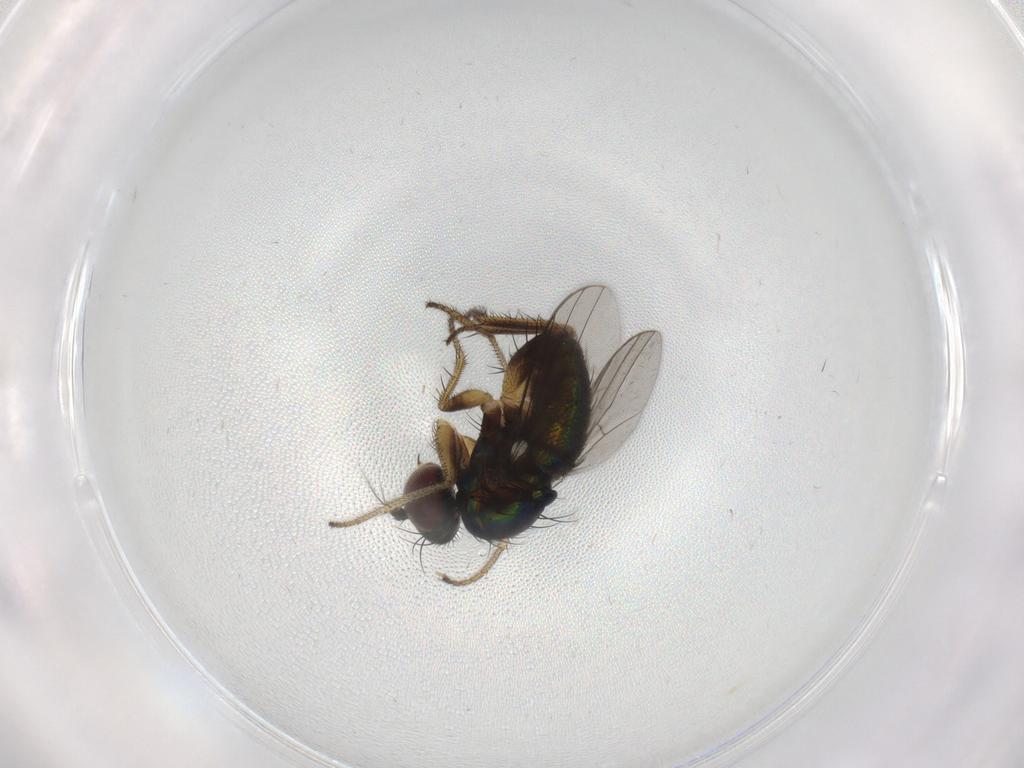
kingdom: Animalia
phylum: Arthropoda
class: Insecta
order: Diptera
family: Dolichopodidae
